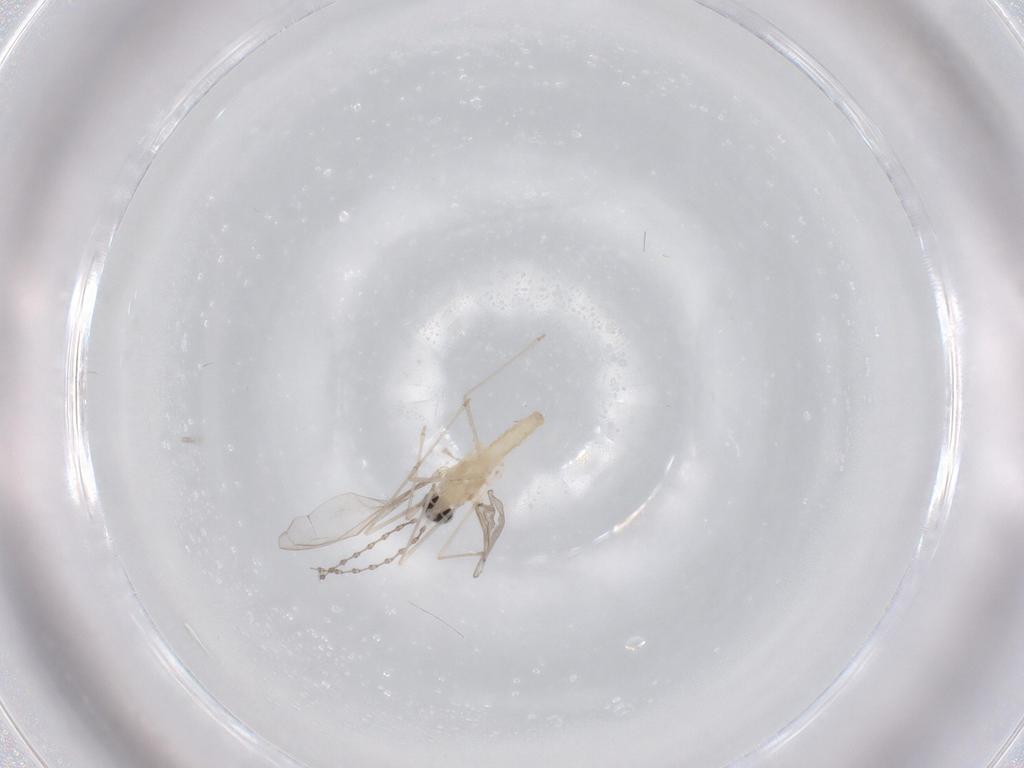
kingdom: Animalia
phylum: Arthropoda
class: Insecta
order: Diptera
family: Cecidomyiidae
